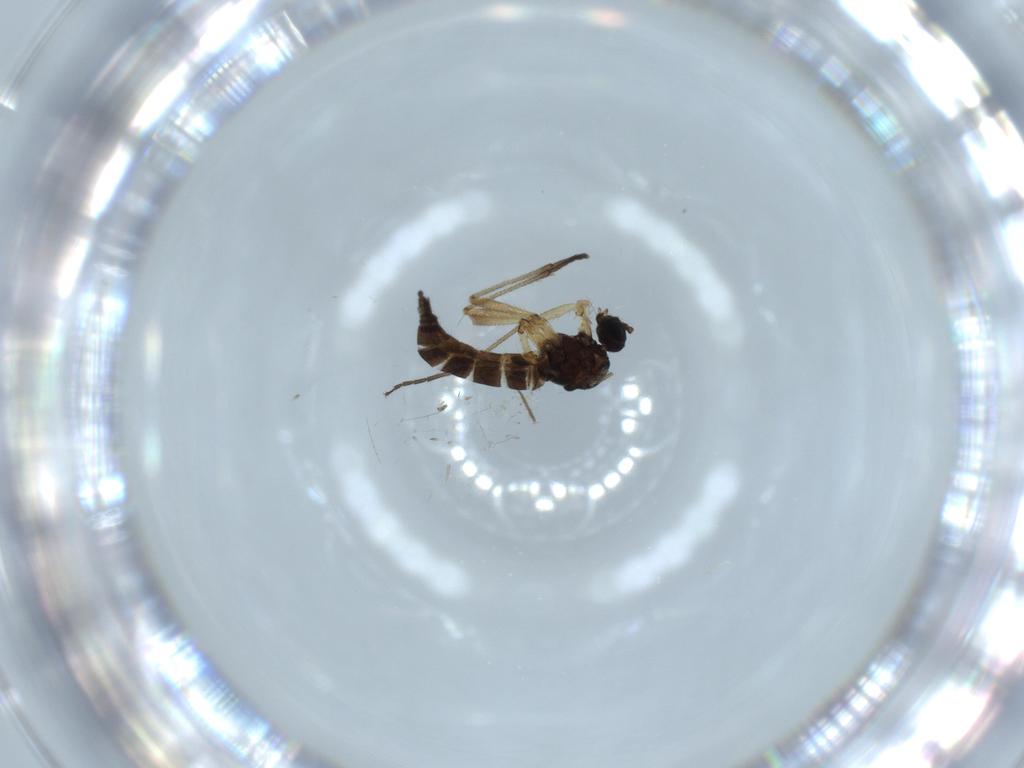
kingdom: Animalia
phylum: Arthropoda
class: Insecta
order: Diptera
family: Sciaridae
